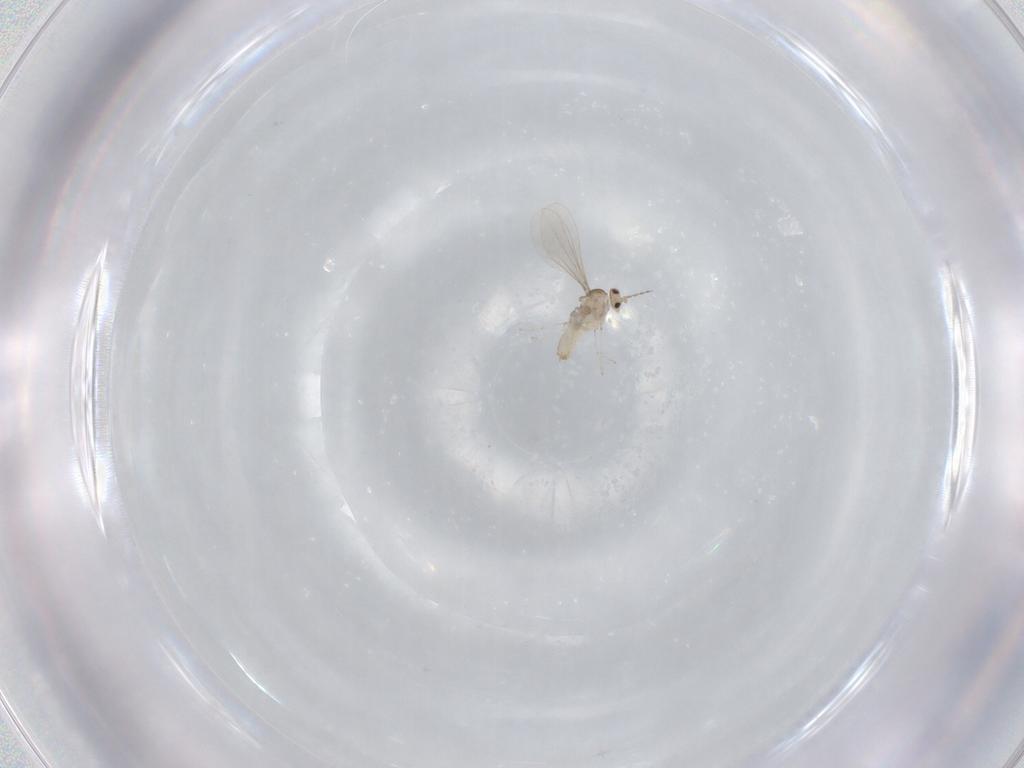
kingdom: Animalia
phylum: Arthropoda
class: Insecta
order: Diptera
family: Cecidomyiidae
